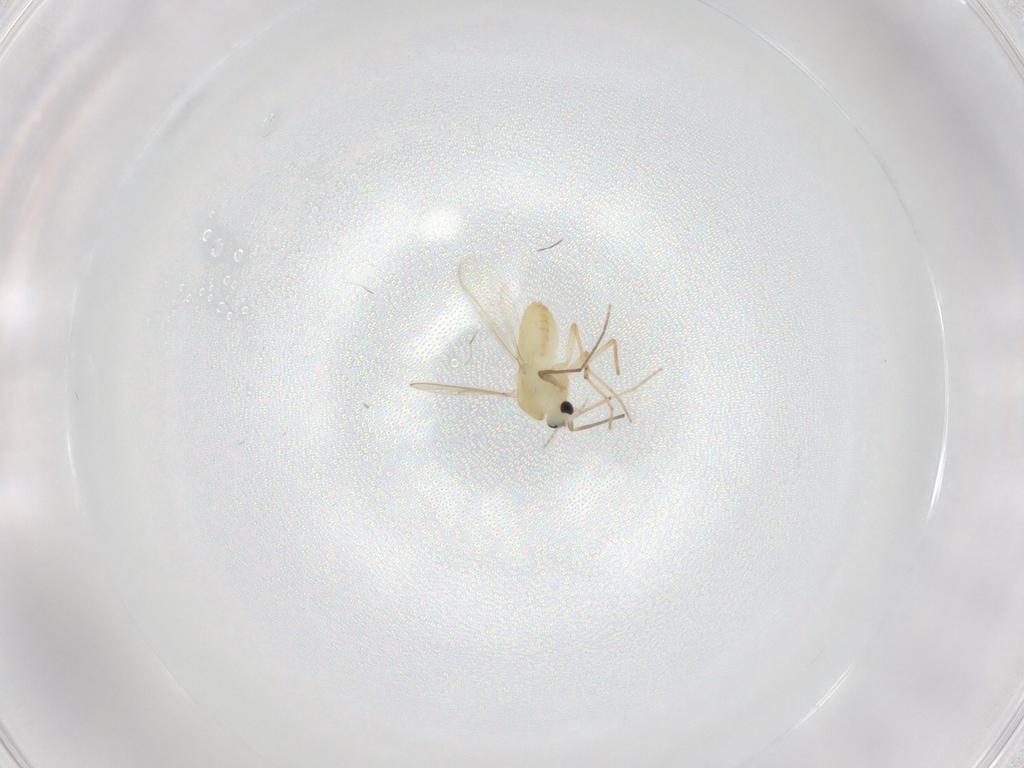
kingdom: Animalia
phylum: Arthropoda
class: Insecta
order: Diptera
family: Chironomidae
